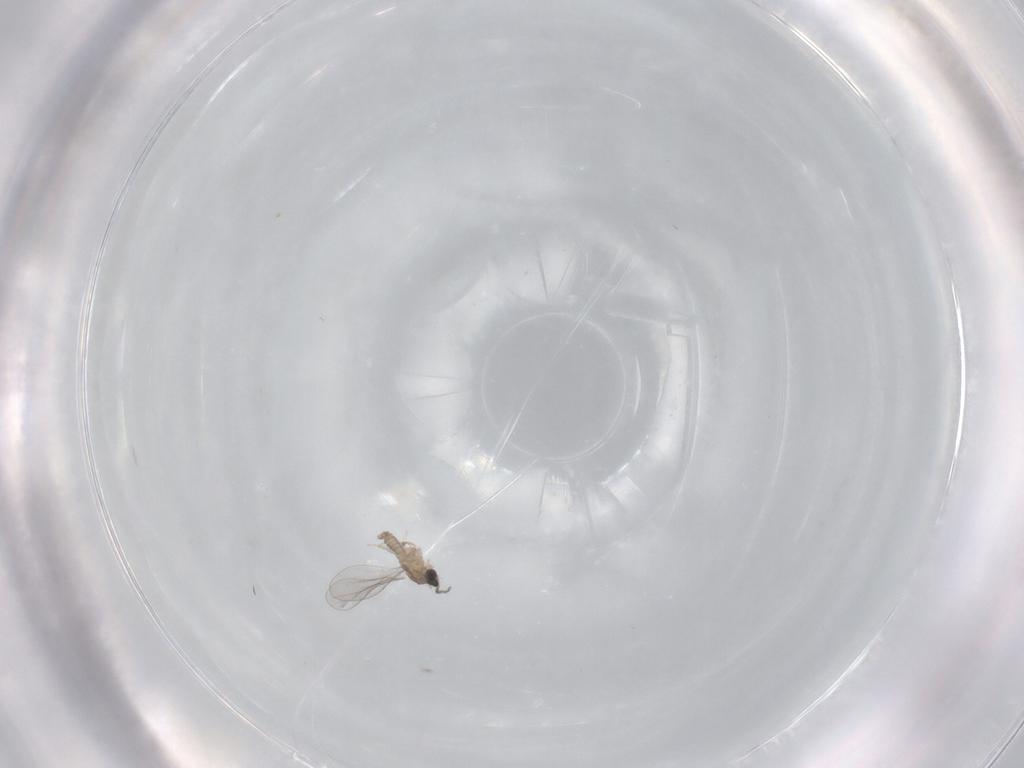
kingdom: Animalia
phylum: Arthropoda
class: Insecta
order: Diptera
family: Cecidomyiidae
